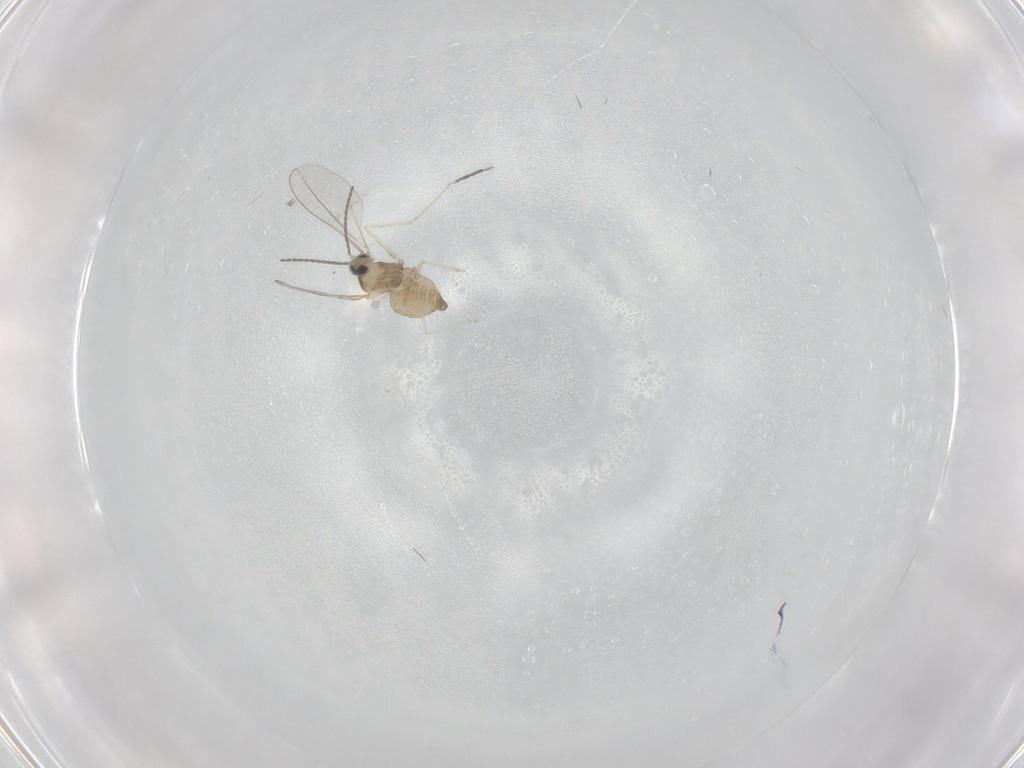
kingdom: Animalia
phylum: Arthropoda
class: Insecta
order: Diptera
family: Cecidomyiidae
